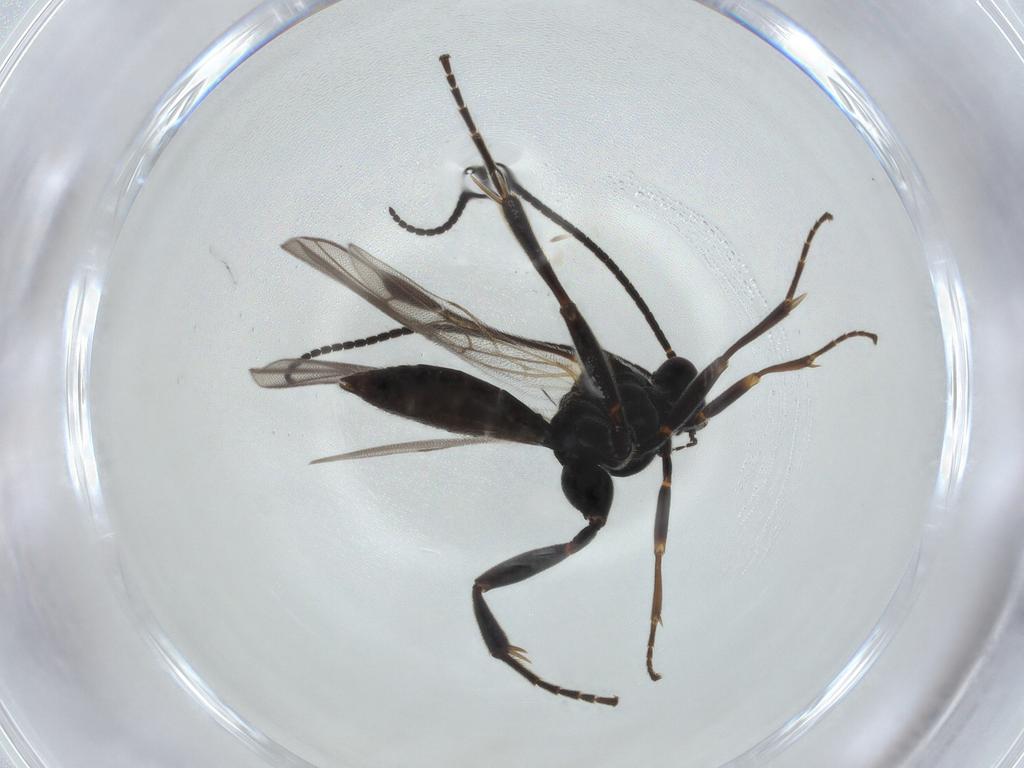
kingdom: Animalia
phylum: Arthropoda
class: Insecta
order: Hymenoptera
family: Braconidae
